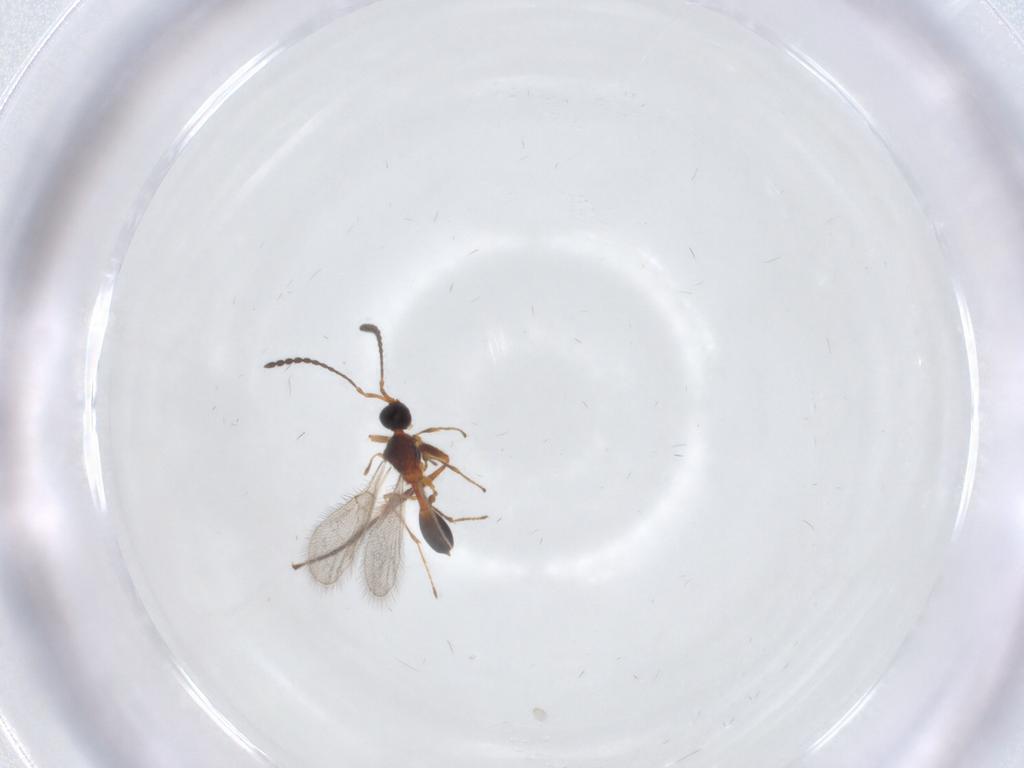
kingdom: Animalia
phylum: Arthropoda
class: Insecta
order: Hymenoptera
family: Diapriidae
